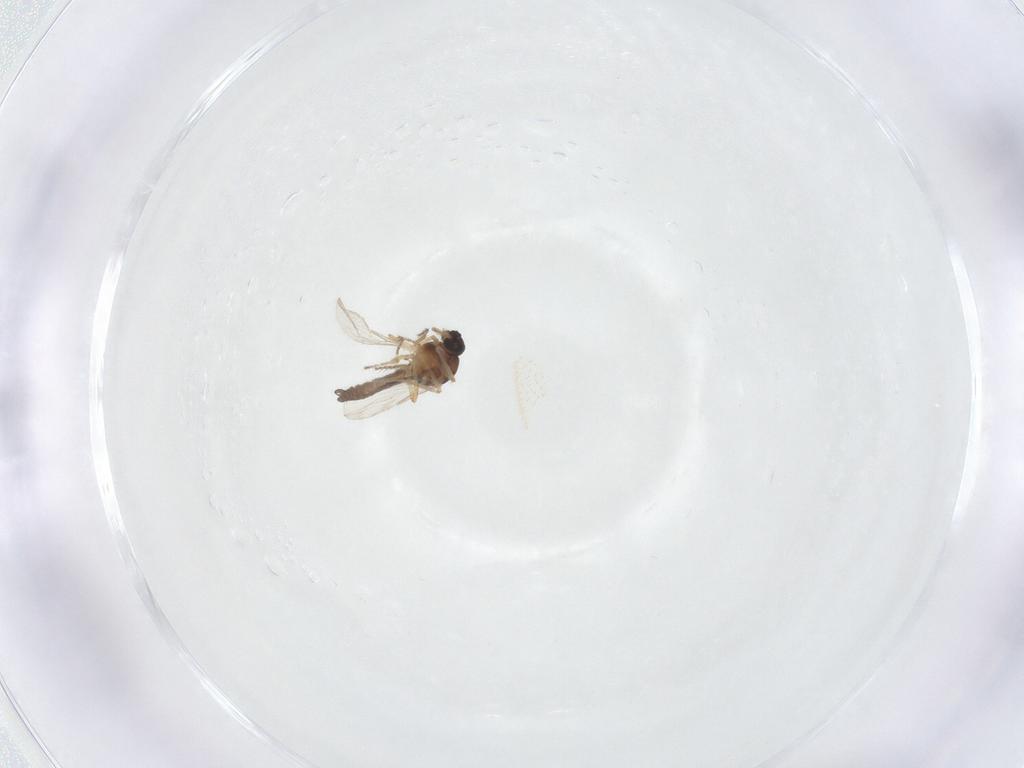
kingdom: Animalia
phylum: Arthropoda
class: Insecta
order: Diptera
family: Ceratopogonidae
